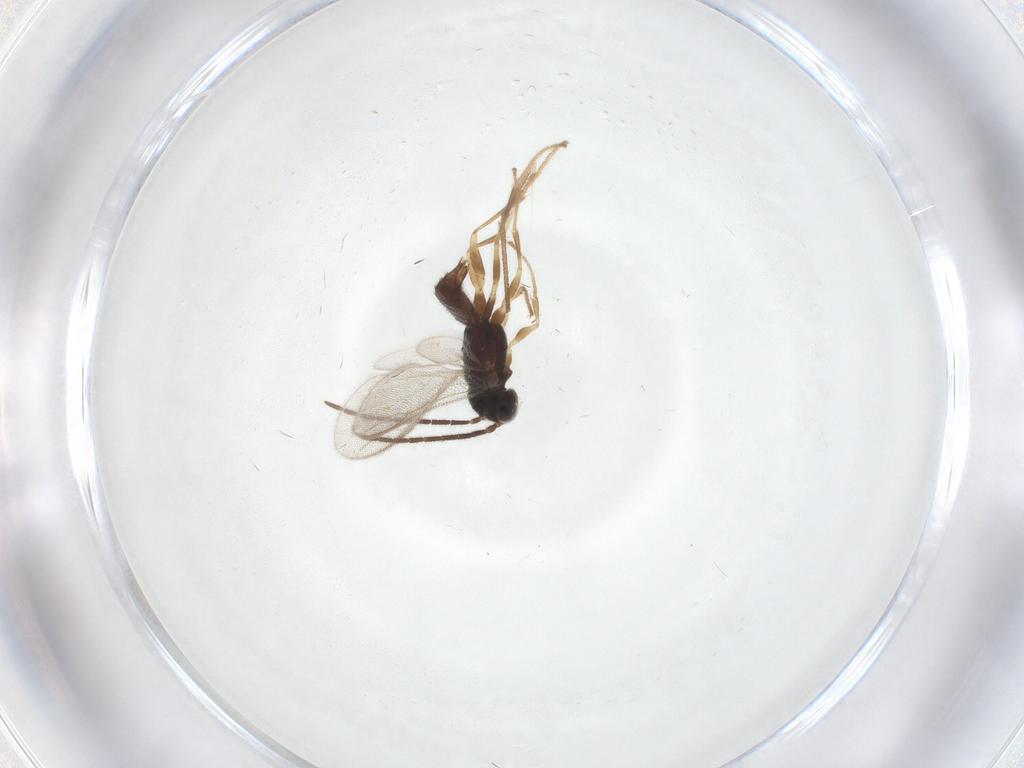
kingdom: Animalia
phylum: Arthropoda
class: Insecta
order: Hymenoptera
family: Dryinidae
